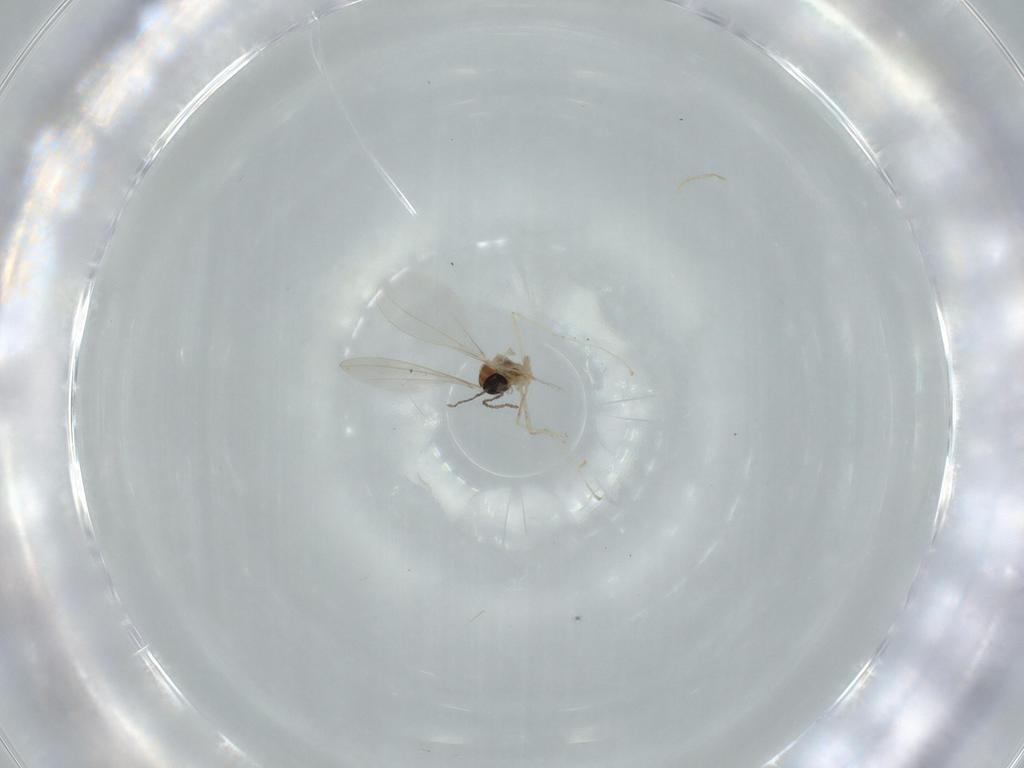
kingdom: Animalia
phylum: Arthropoda
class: Insecta
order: Diptera
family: Cecidomyiidae
